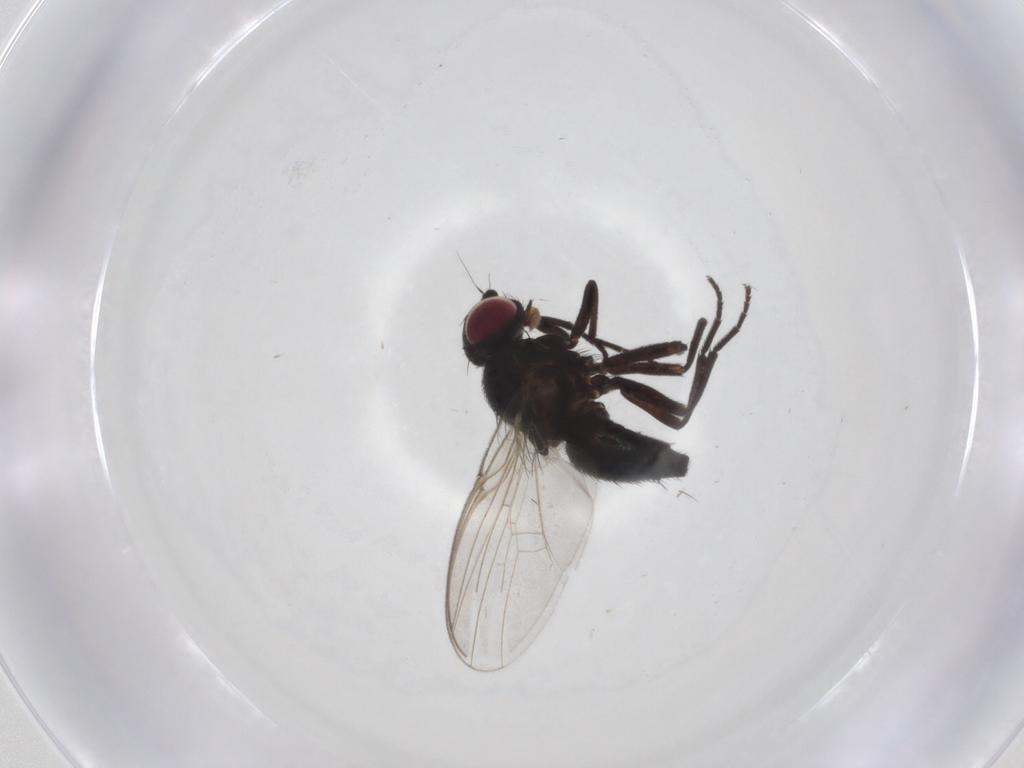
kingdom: Animalia
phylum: Arthropoda
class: Insecta
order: Diptera
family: Agromyzidae
